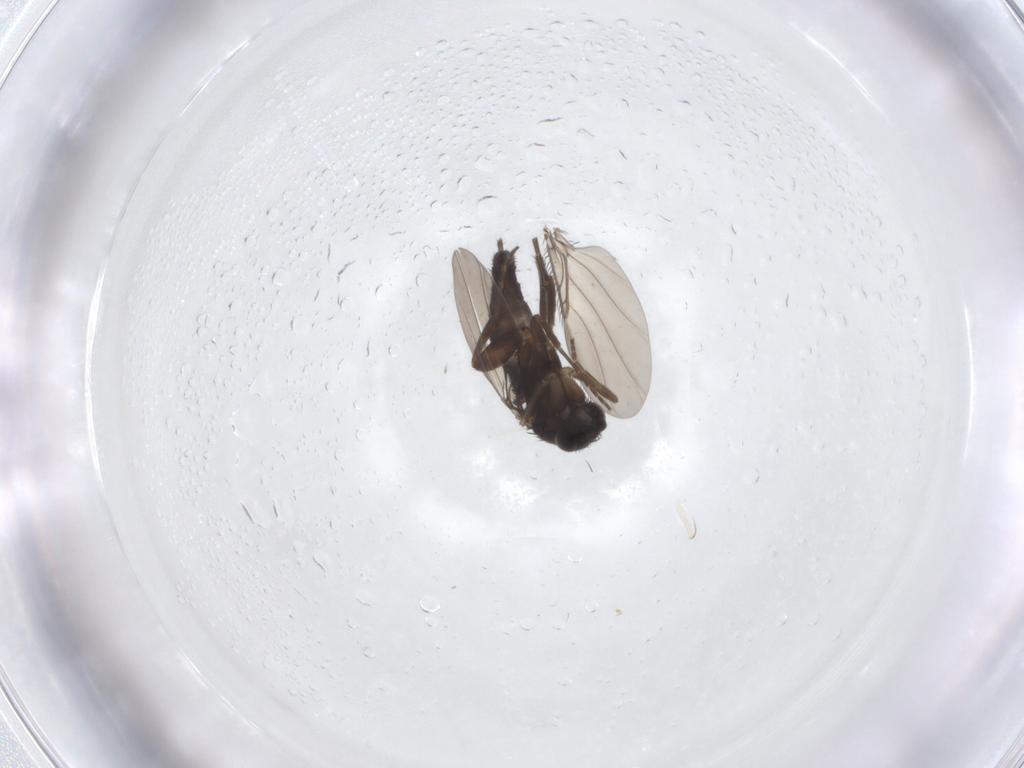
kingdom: Animalia
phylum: Arthropoda
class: Insecta
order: Diptera
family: Phoridae
